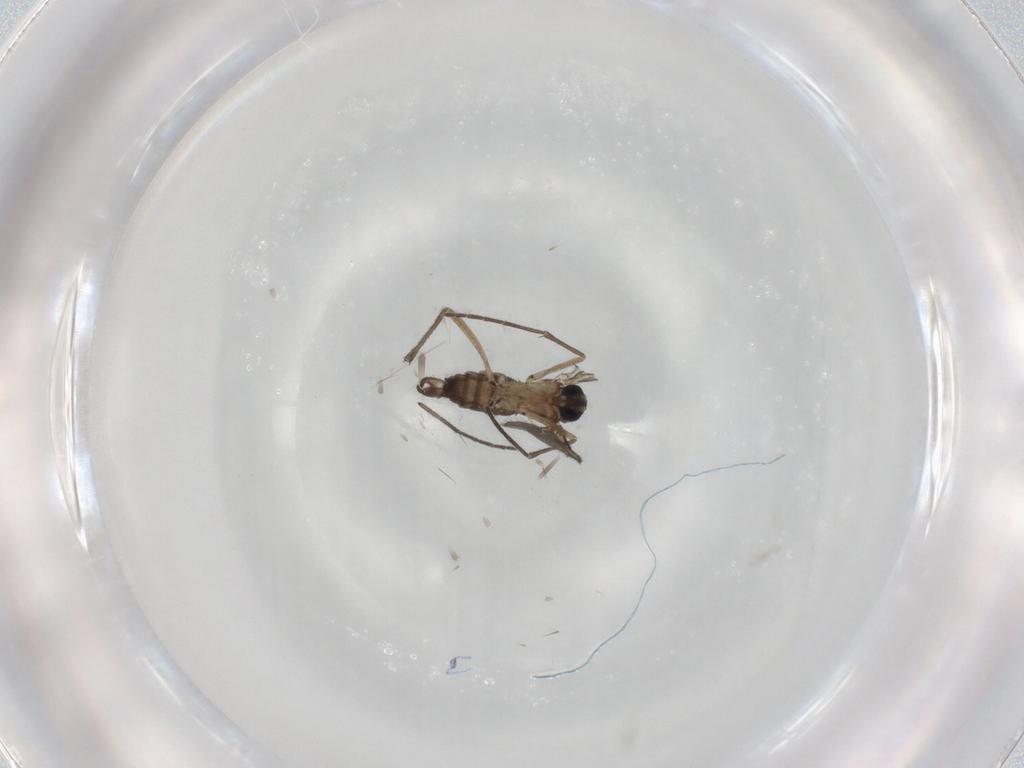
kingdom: Animalia
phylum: Arthropoda
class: Insecta
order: Diptera
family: Sciaridae
